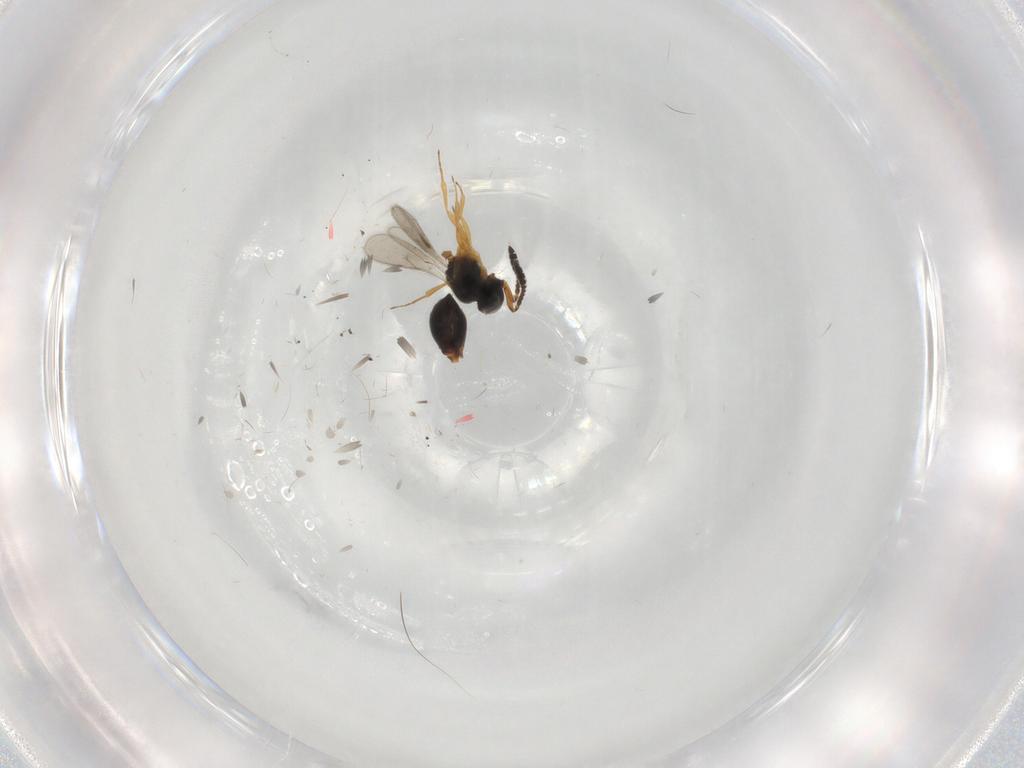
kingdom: Animalia
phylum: Arthropoda
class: Insecta
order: Hymenoptera
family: Scelionidae
